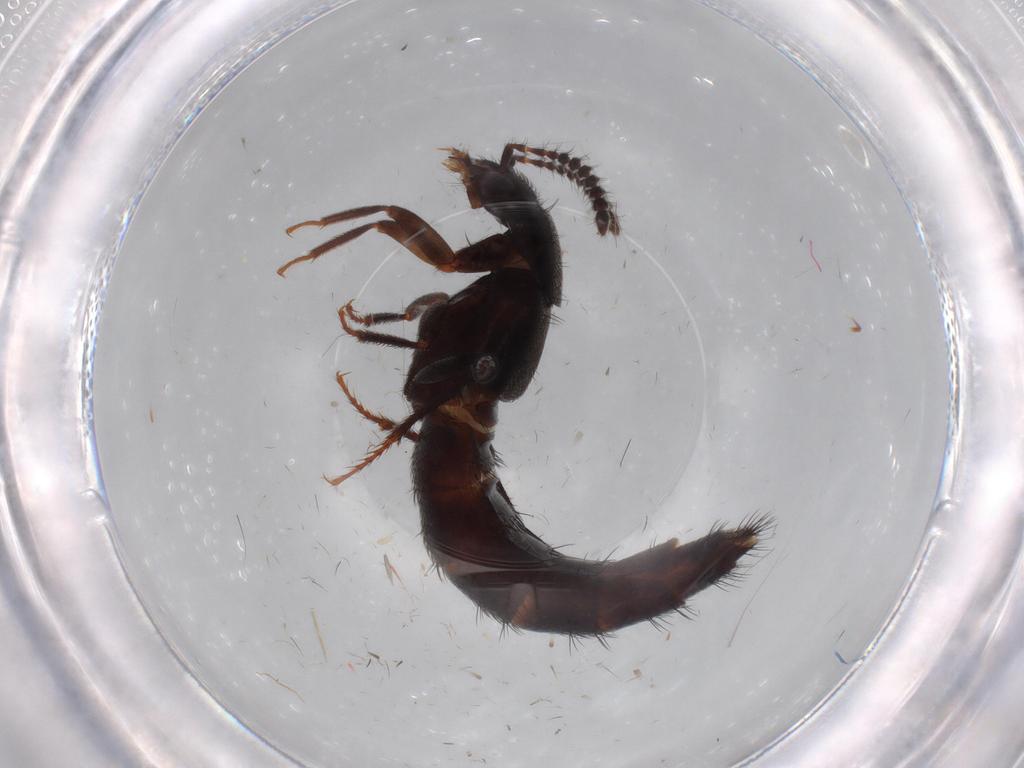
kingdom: Animalia
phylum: Arthropoda
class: Insecta
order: Coleoptera
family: Staphylinidae
